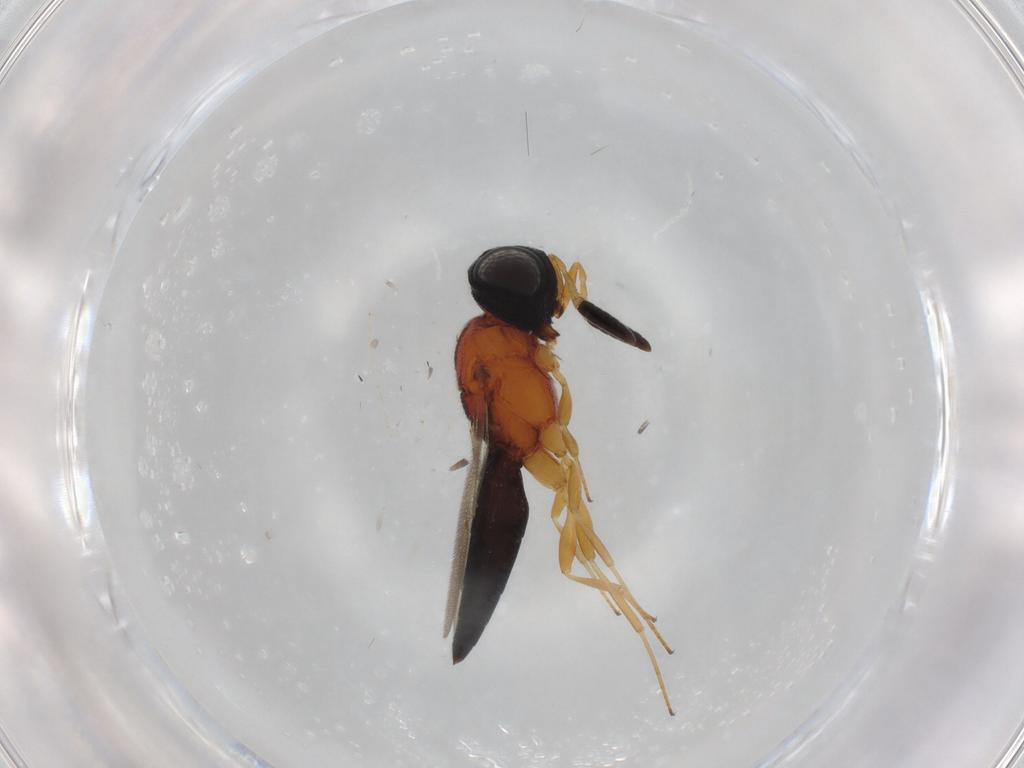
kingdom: Animalia
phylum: Arthropoda
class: Insecta
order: Hymenoptera
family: Scelionidae
